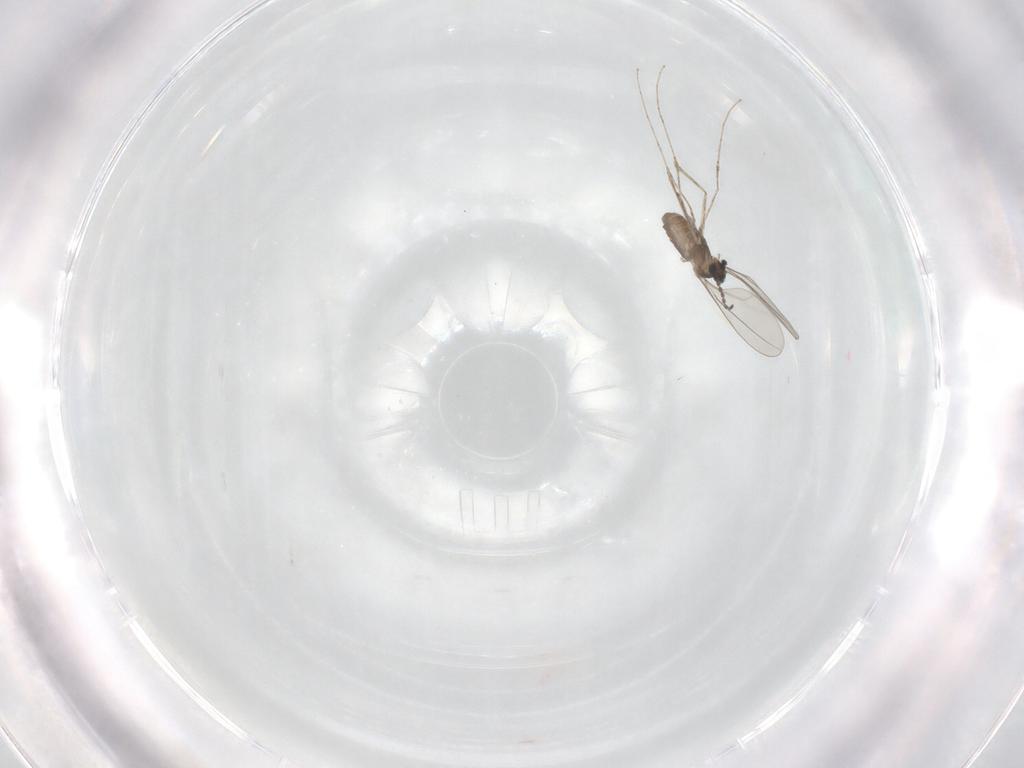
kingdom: Animalia
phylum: Arthropoda
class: Insecta
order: Diptera
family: Cecidomyiidae
